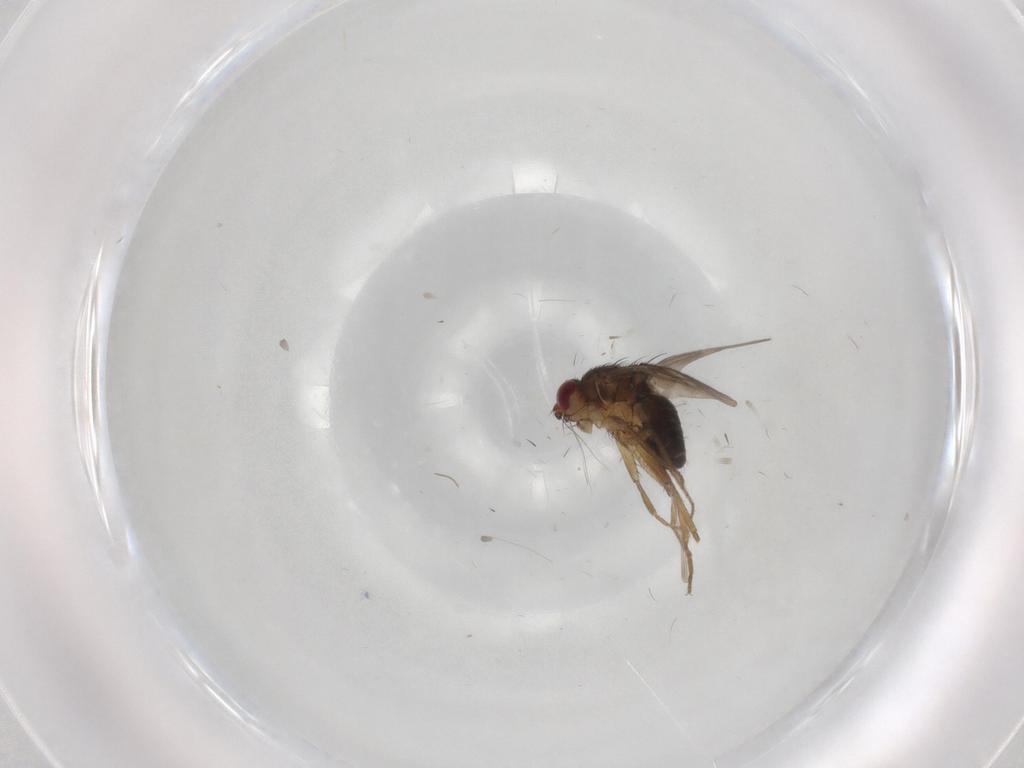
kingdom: Animalia
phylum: Arthropoda
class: Insecta
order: Diptera
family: Sphaeroceridae
